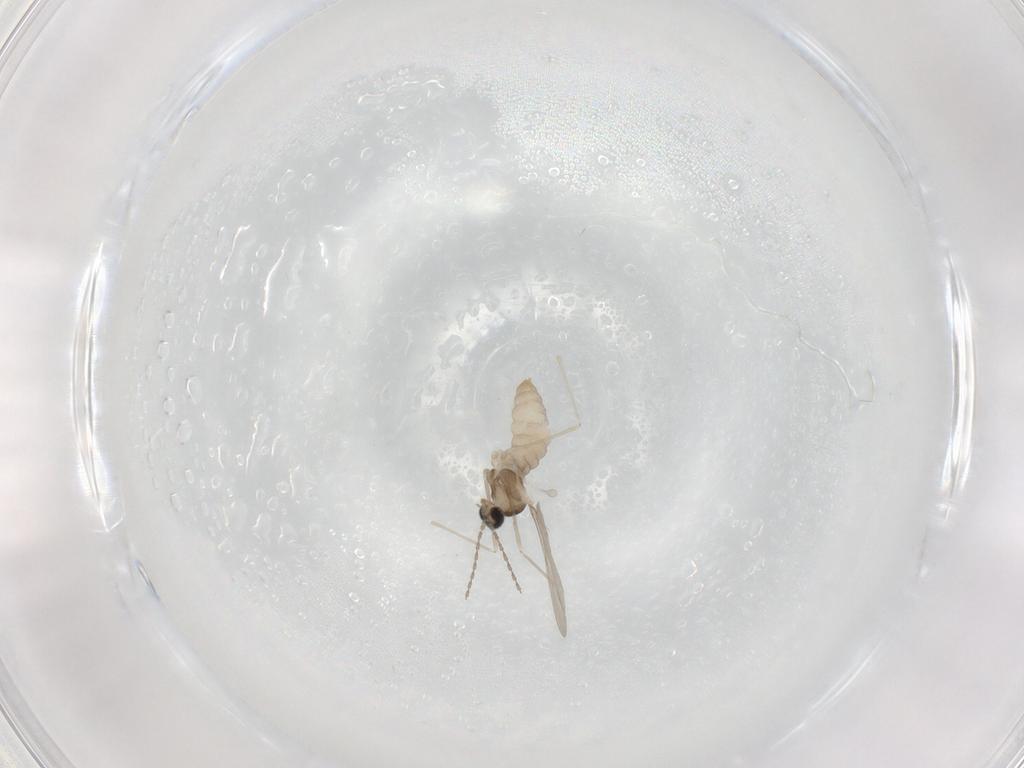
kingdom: Animalia
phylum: Arthropoda
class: Insecta
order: Diptera
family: Cecidomyiidae
